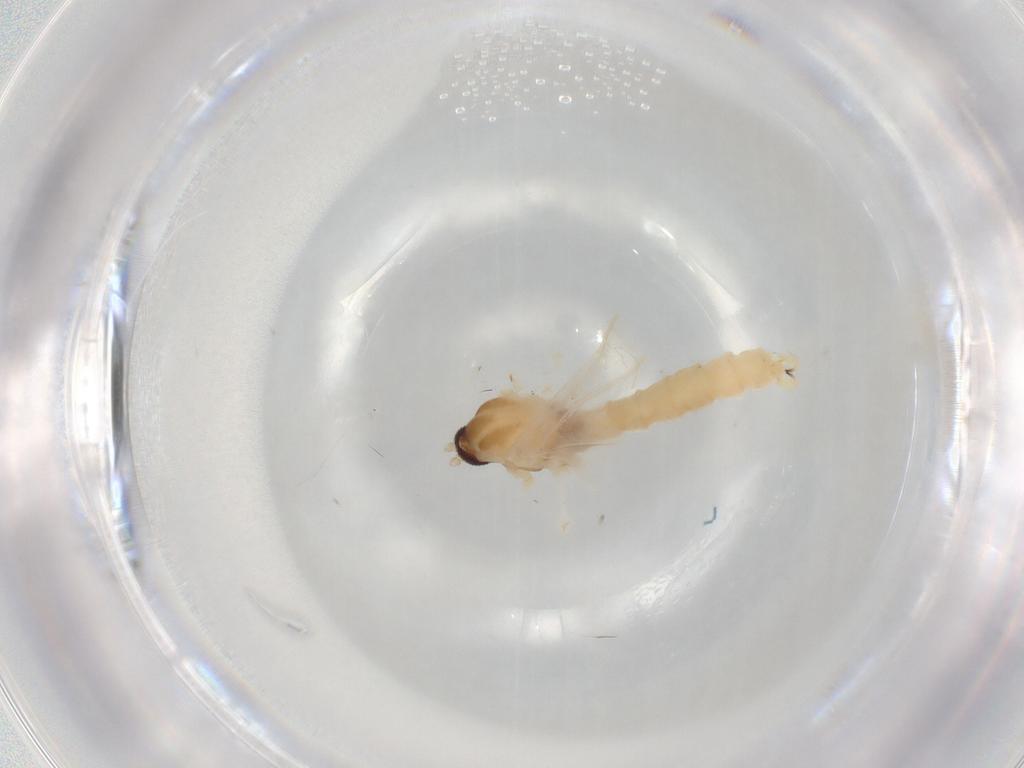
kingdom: Animalia
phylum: Arthropoda
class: Insecta
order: Diptera
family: Cecidomyiidae
